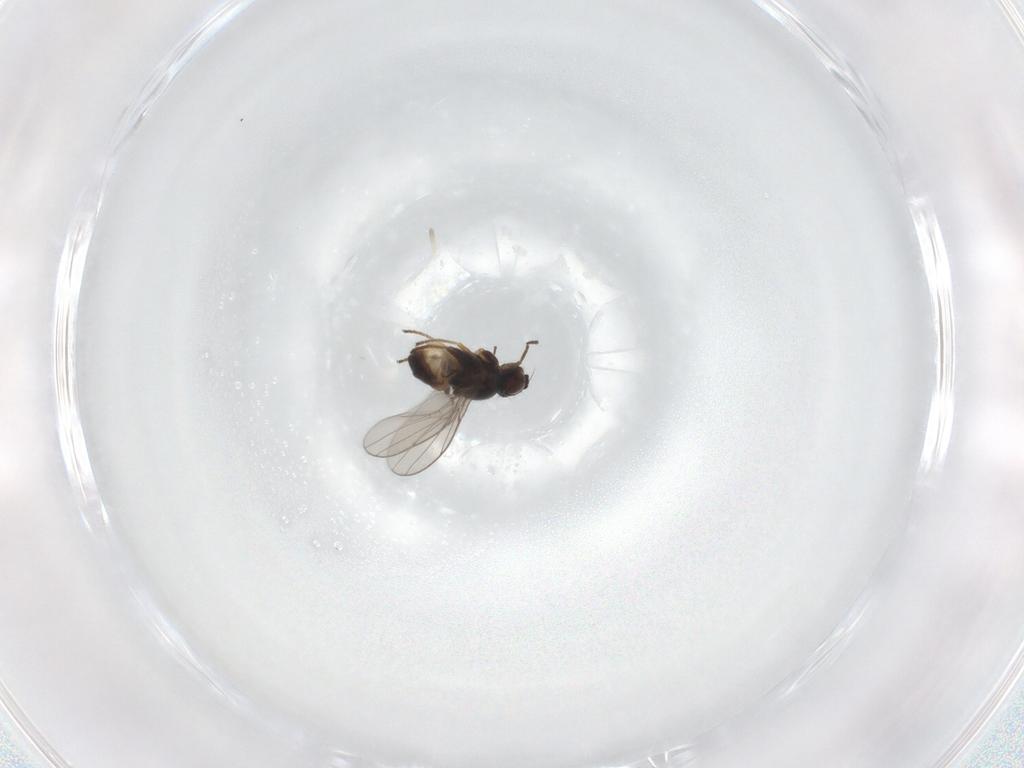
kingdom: Animalia
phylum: Arthropoda
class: Insecta
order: Diptera
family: Chloropidae
